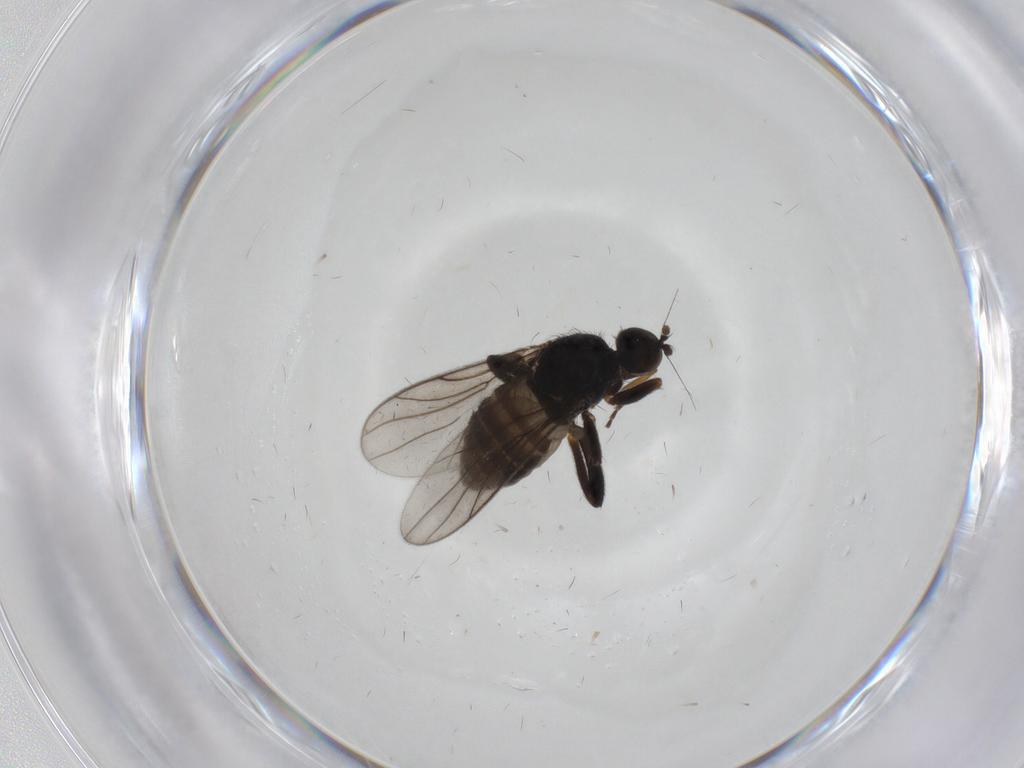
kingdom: Animalia
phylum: Arthropoda
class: Insecta
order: Diptera
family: Hybotidae
